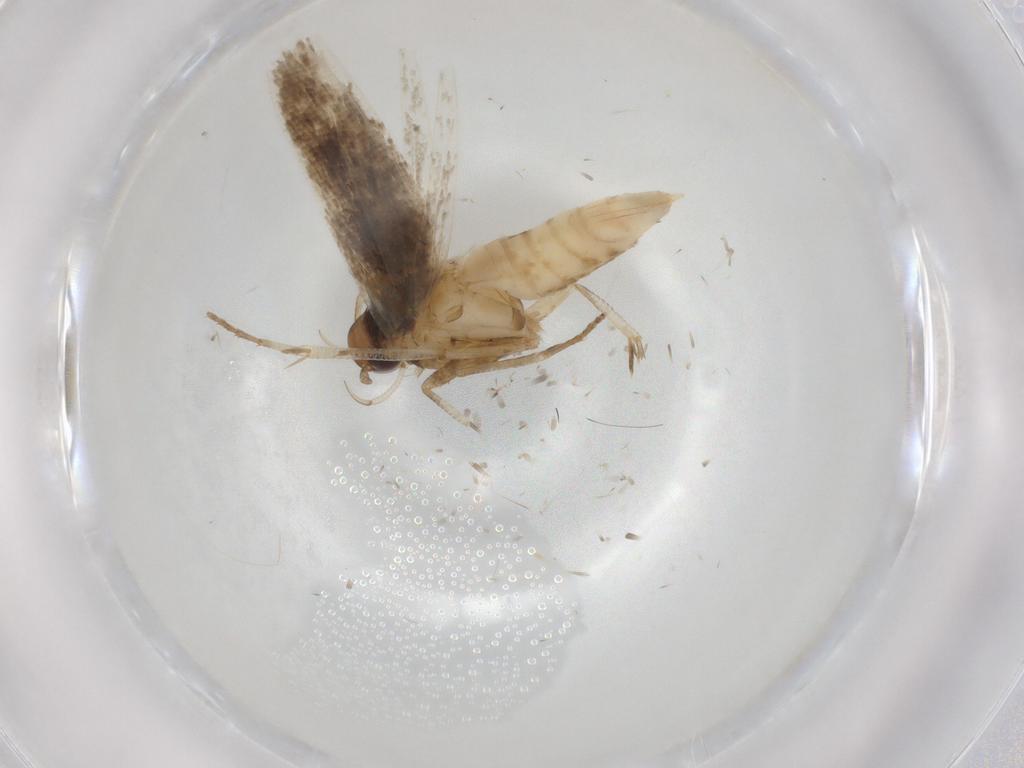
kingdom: Animalia
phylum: Arthropoda
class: Insecta
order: Lepidoptera
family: Cosmopterigidae
